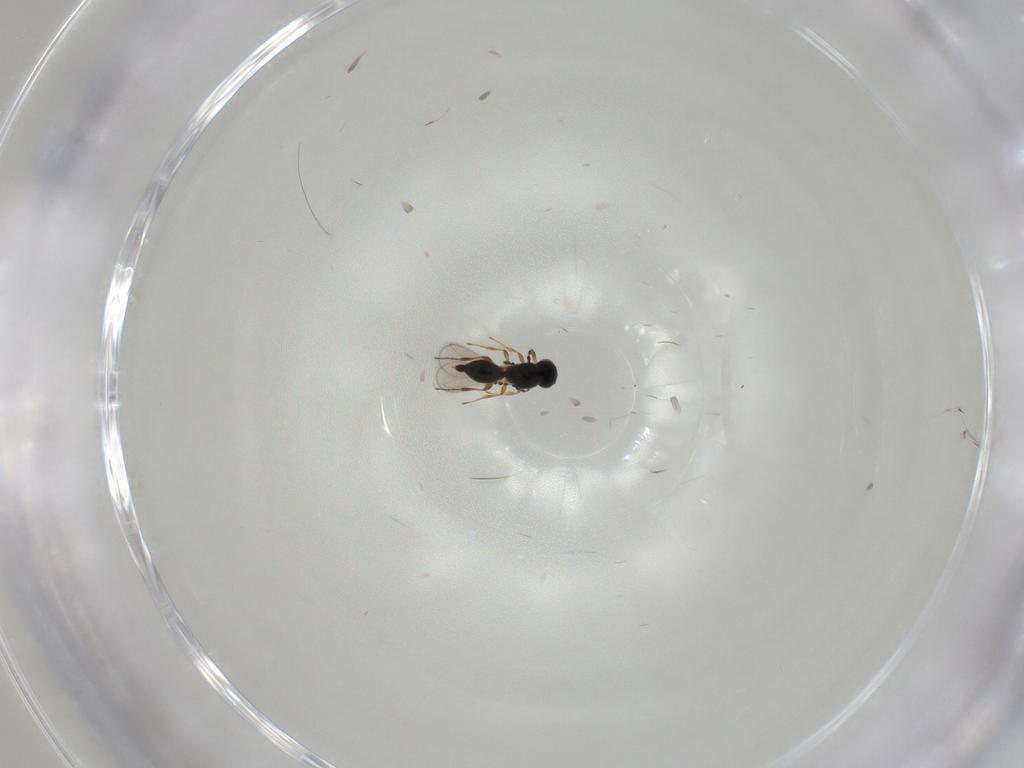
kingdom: Animalia
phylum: Arthropoda
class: Insecta
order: Hymenoptera
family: Platygastridae
